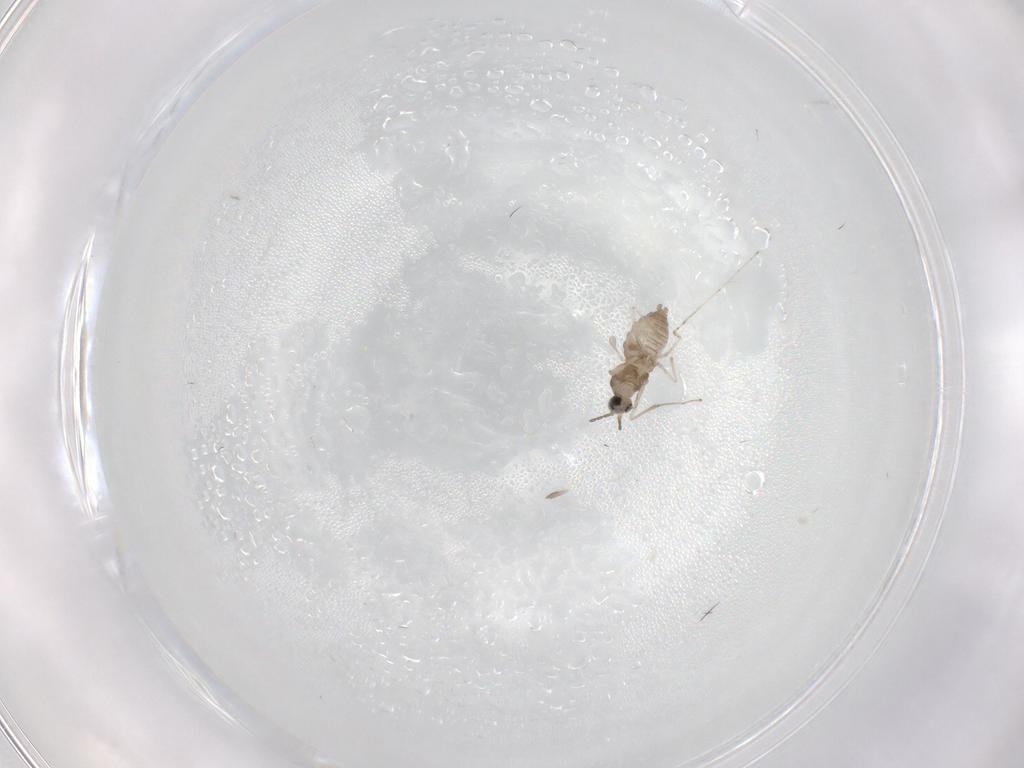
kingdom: Animalia
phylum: Arthropoda
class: Insecta
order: Diptera
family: Cecidomyiidae
